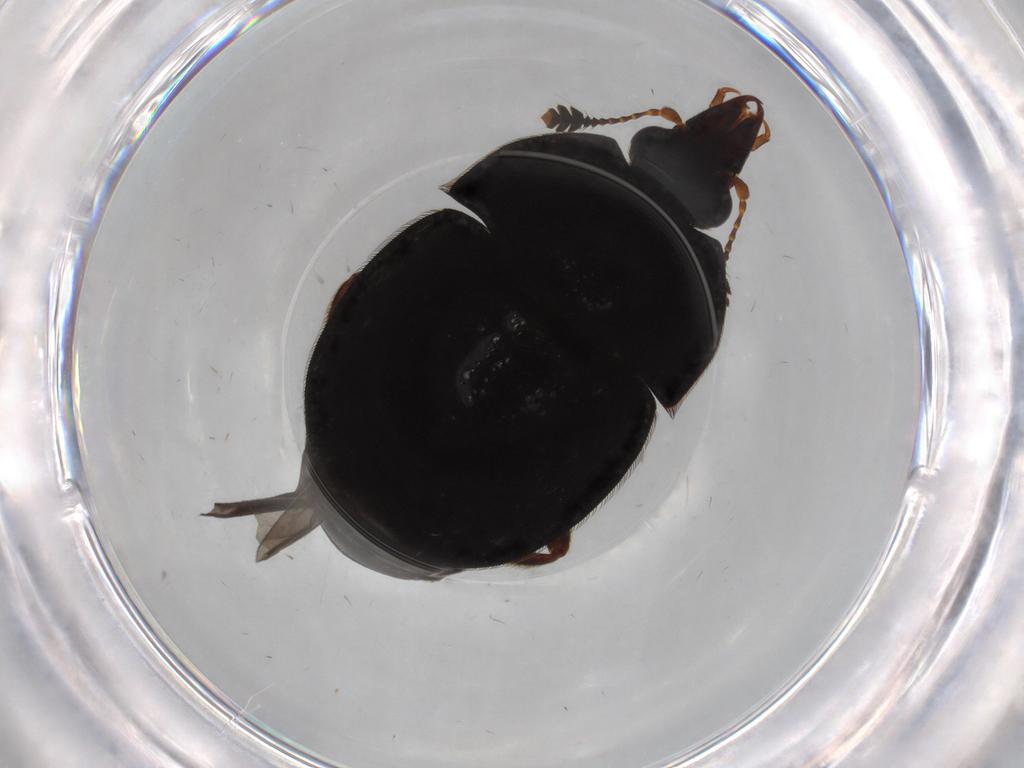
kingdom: Animalia
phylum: Arthropoda
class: Insecta
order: Coleoptera
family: Chrysomelidae
